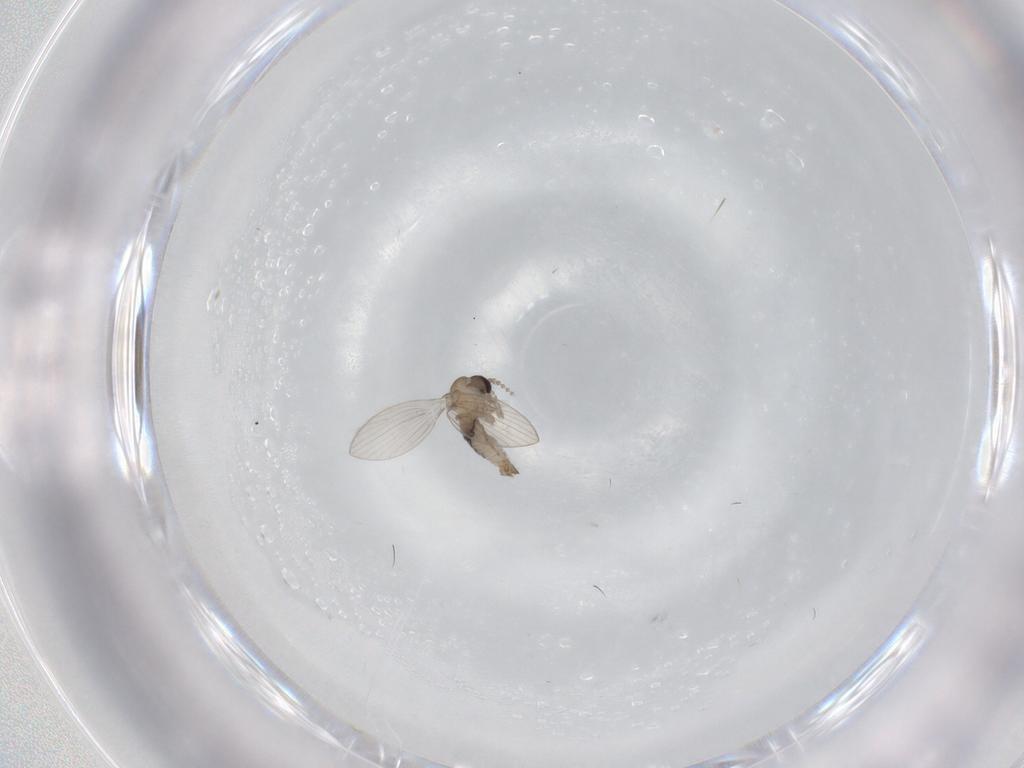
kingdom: Animalia
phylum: Arthropoda
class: Insecta
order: Diptera
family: Psychodidae
